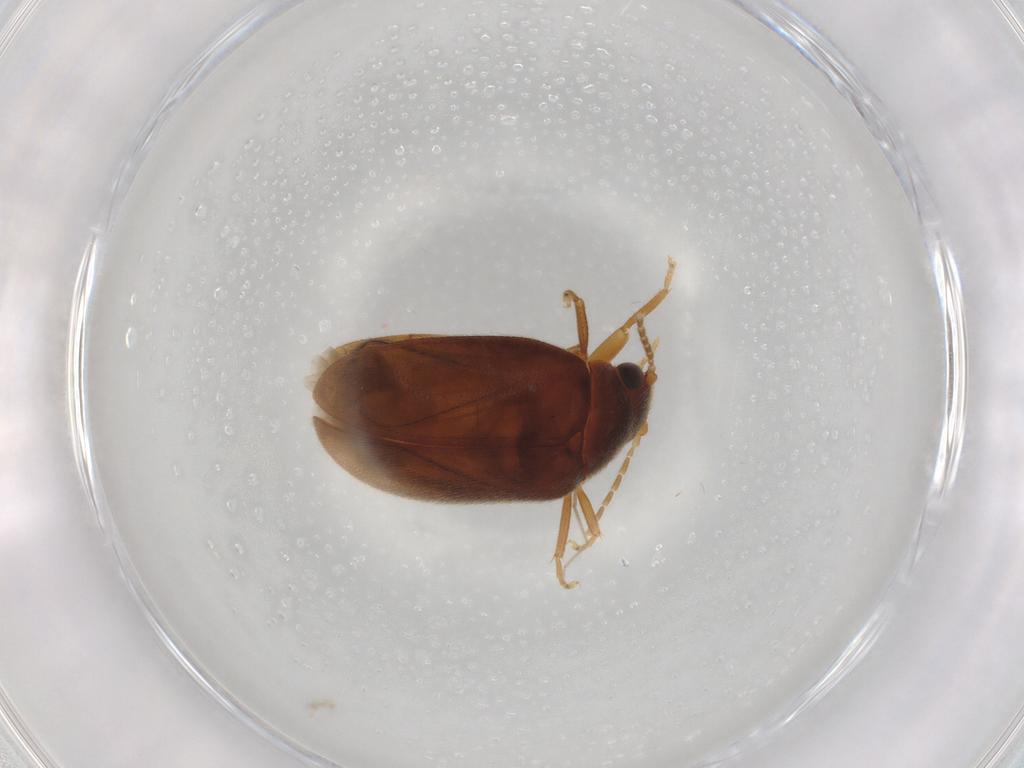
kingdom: Animalia
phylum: Arthropoda
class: Insecta
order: Coleoptera
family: Scirtidae
